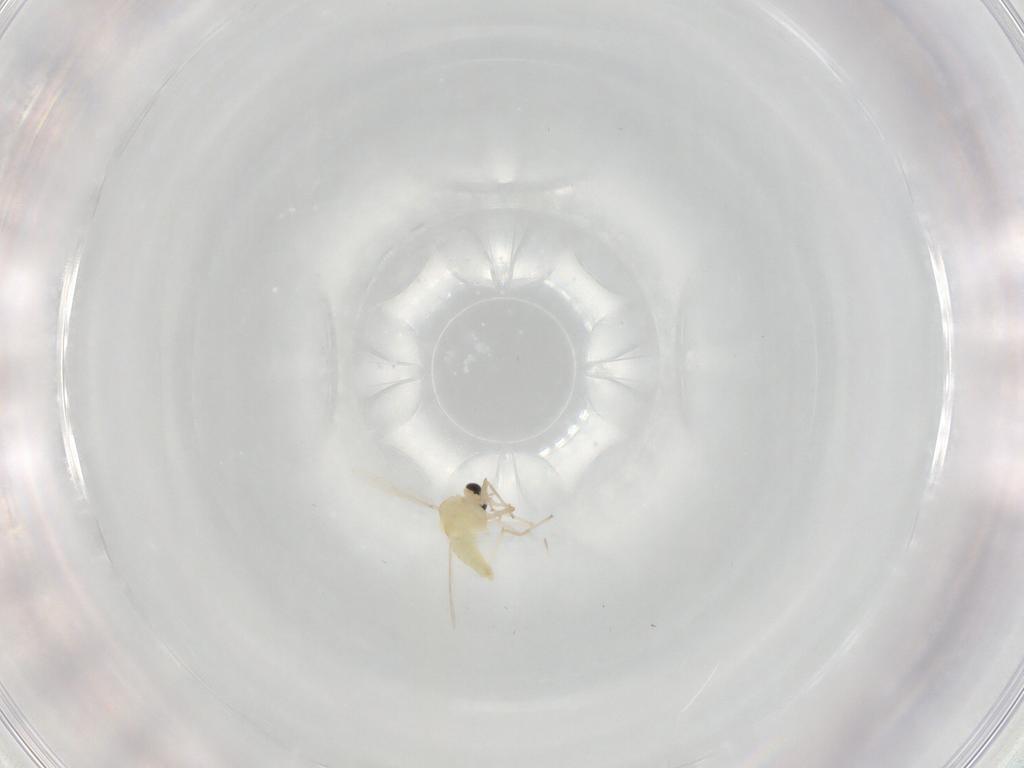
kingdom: Animalia
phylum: Arthropoda
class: Insecta
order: Diptera
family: Chironomidae
